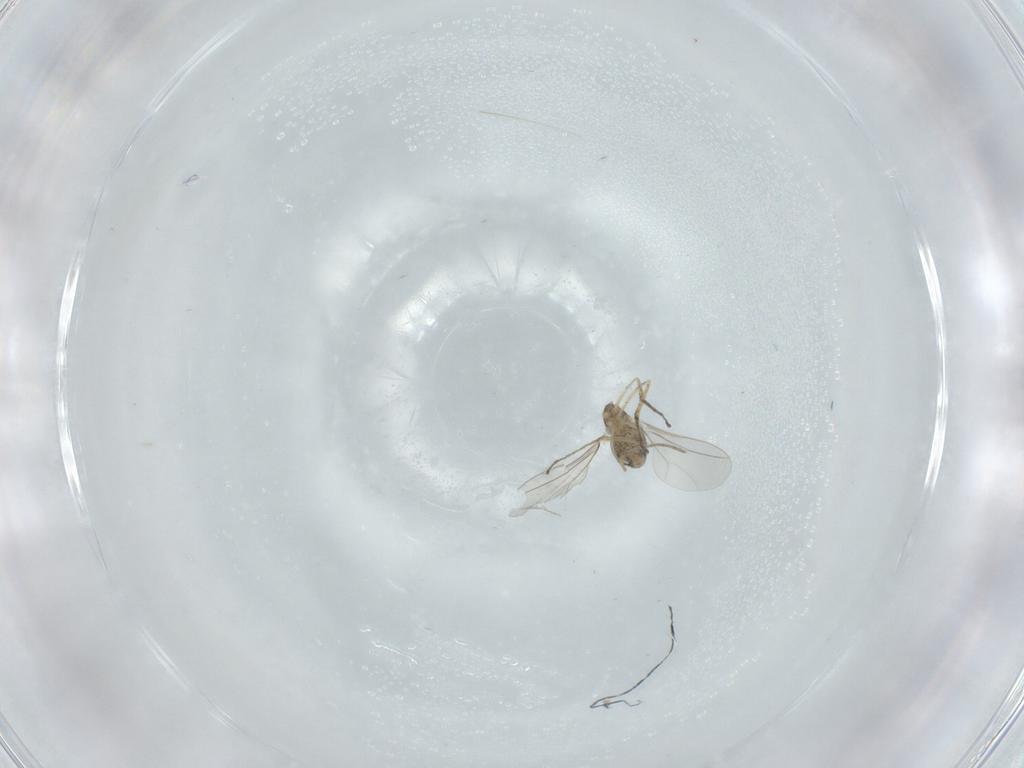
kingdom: Animalia
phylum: Arthropoda
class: Insecta
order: Diptera
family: Cecidomyiidae
